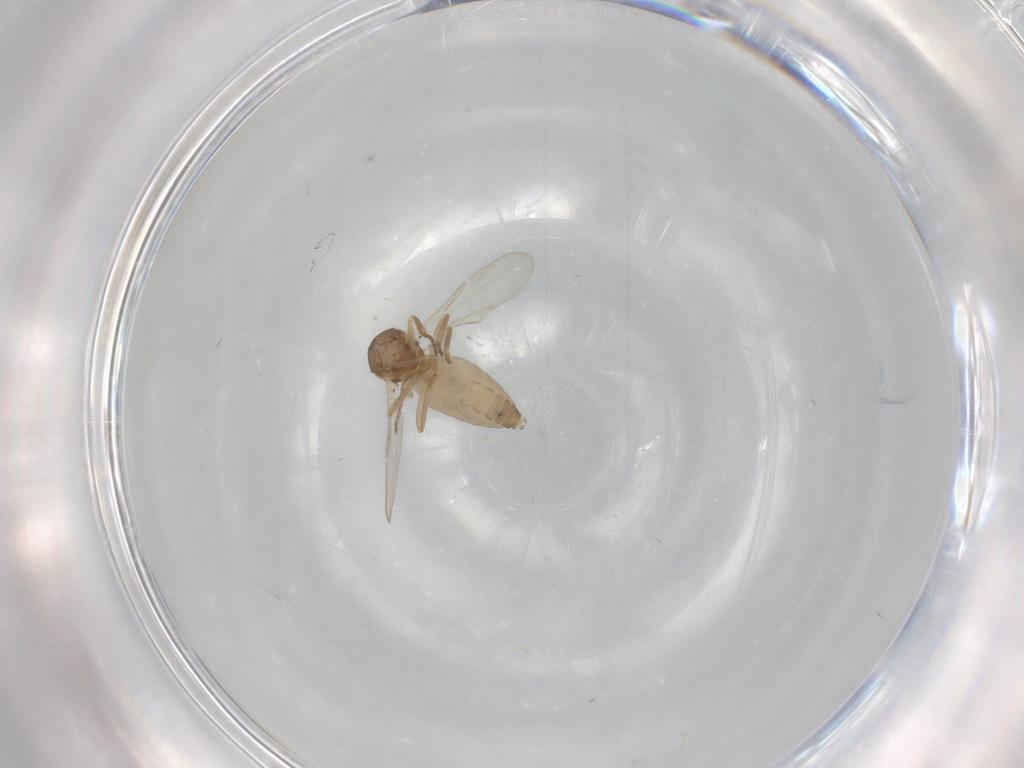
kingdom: Animalia
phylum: Arthropoda
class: Insecta
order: Diptera
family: Ceratopogonidae
